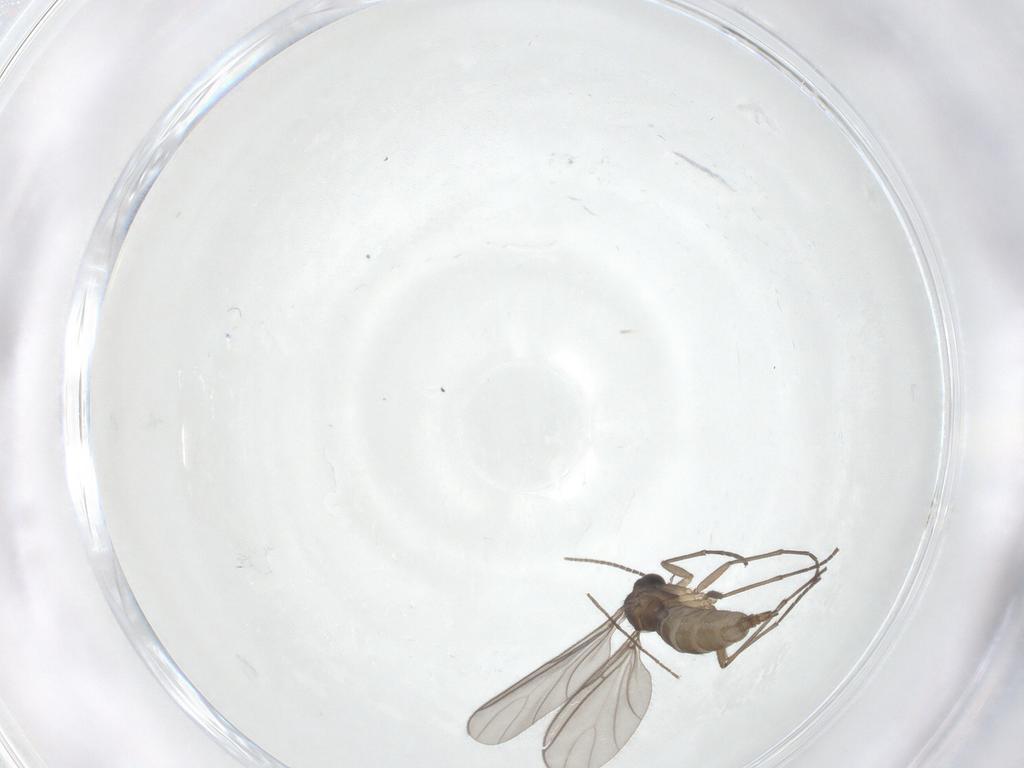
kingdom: Animalia
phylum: Arthropoda
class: Insecta
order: Diptera
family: Sciaridae
